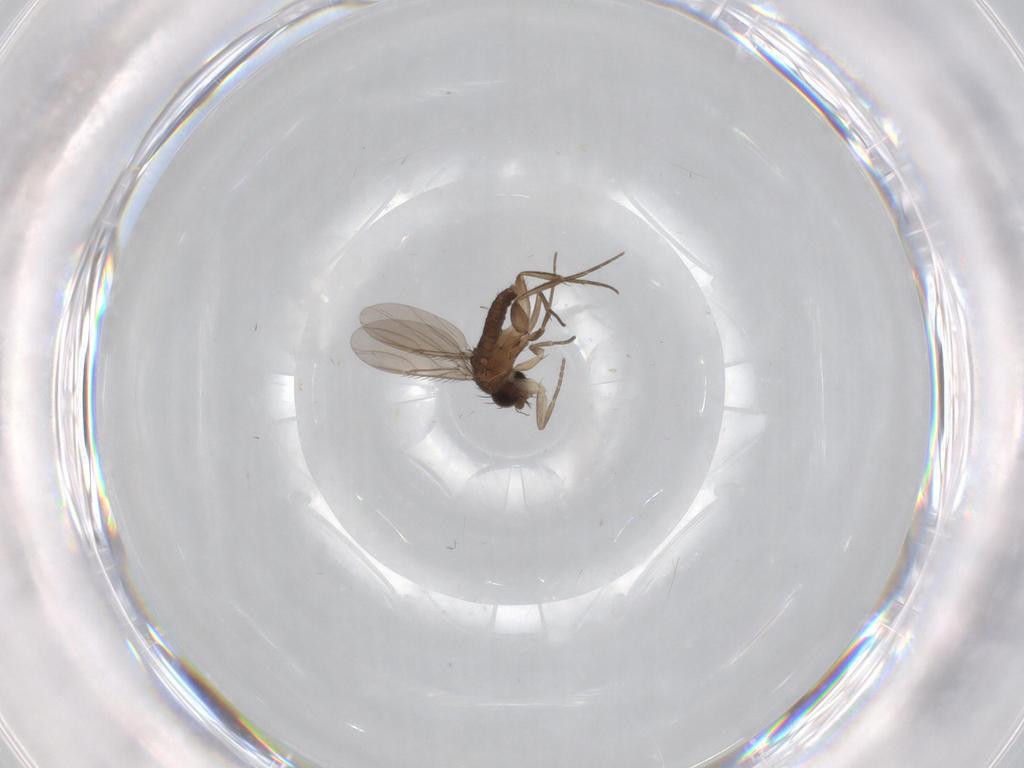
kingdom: Animalia
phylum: Arthropoda
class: Insecta
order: Diptera
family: Phoridae
